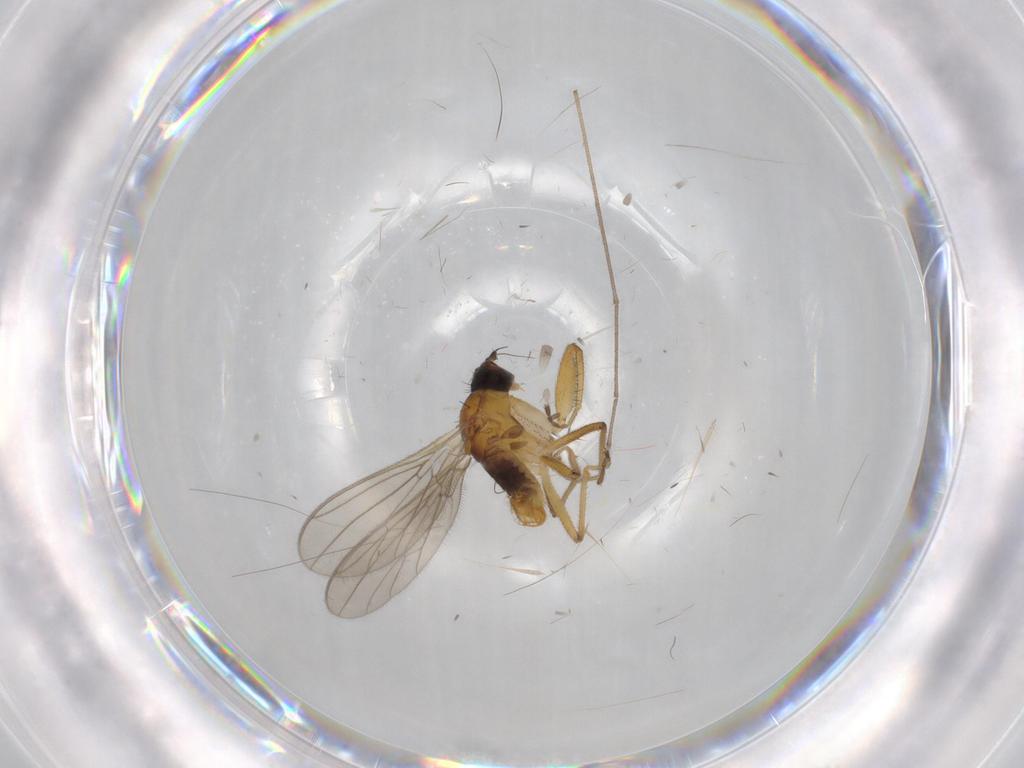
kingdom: Animalia
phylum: Arthropoda
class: Insecta
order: Diptera
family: Empididae
